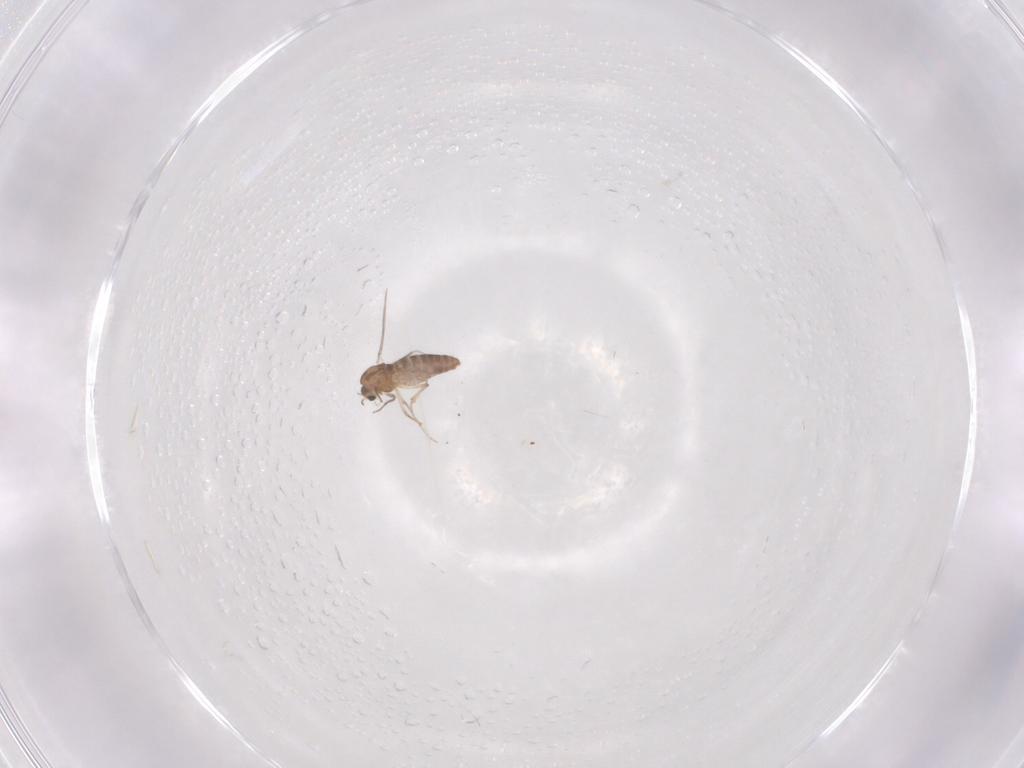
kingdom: Animalia
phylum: Arthropoda
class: Insecta
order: Diptera
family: Chironomidae
